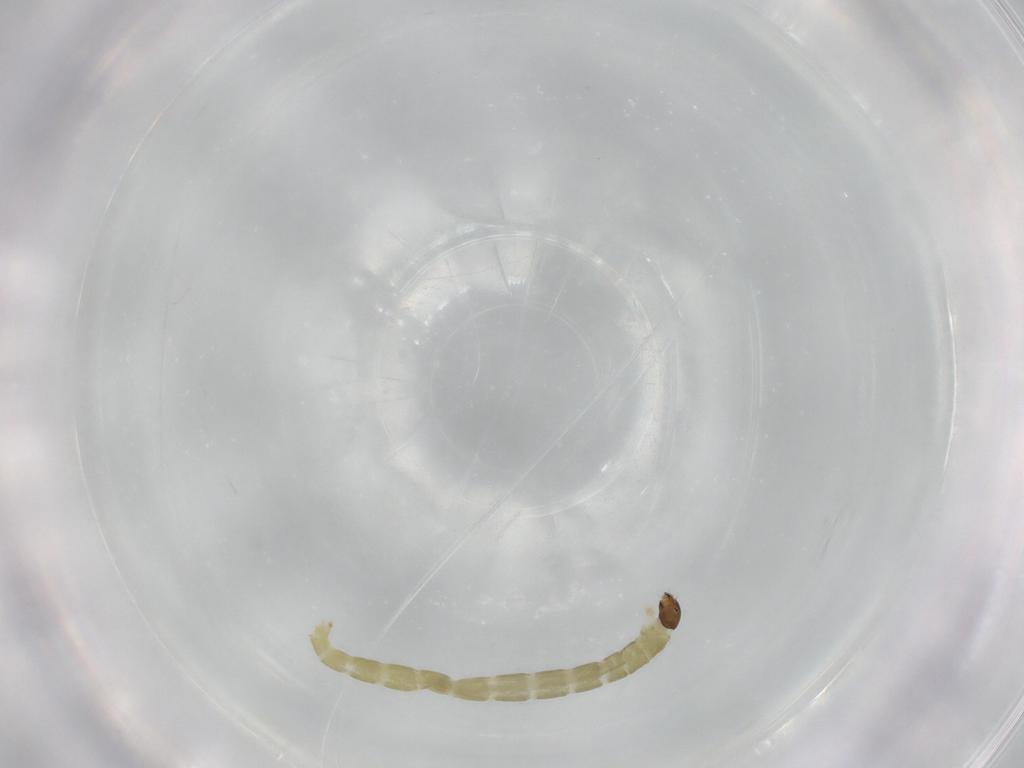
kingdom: Animalia
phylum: Arthropoda
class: Insecta
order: Diptera
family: Chironomidae
